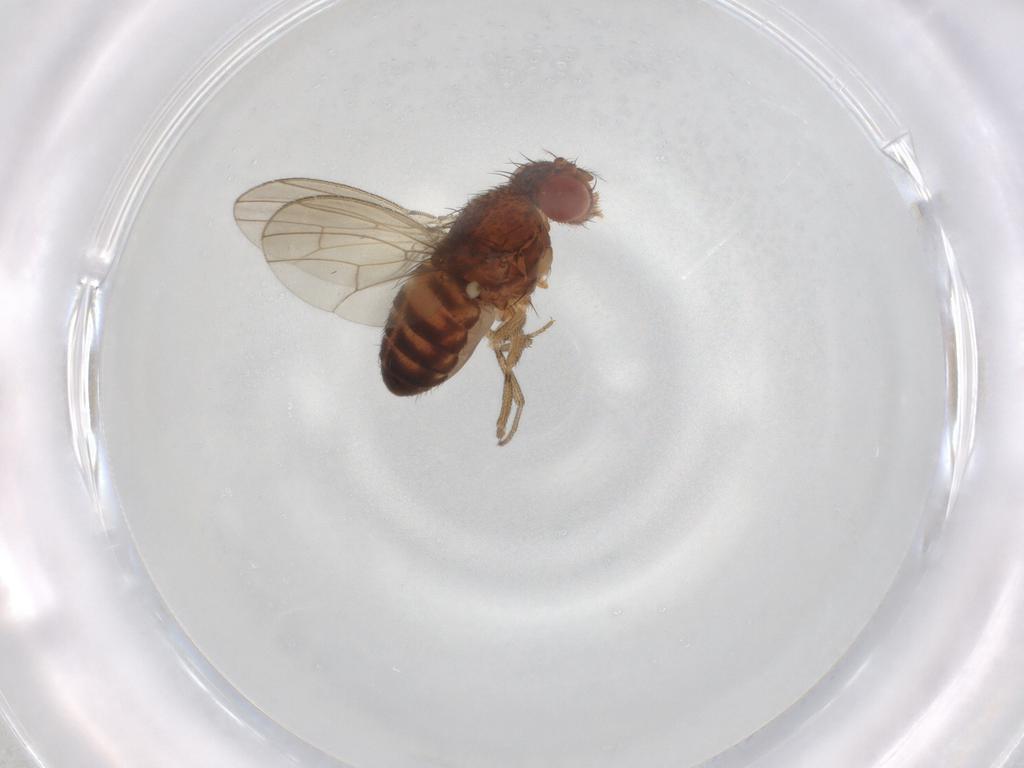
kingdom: Animalia
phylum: Arthropoda
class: Insecta
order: Diptera
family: Drosophilidae
